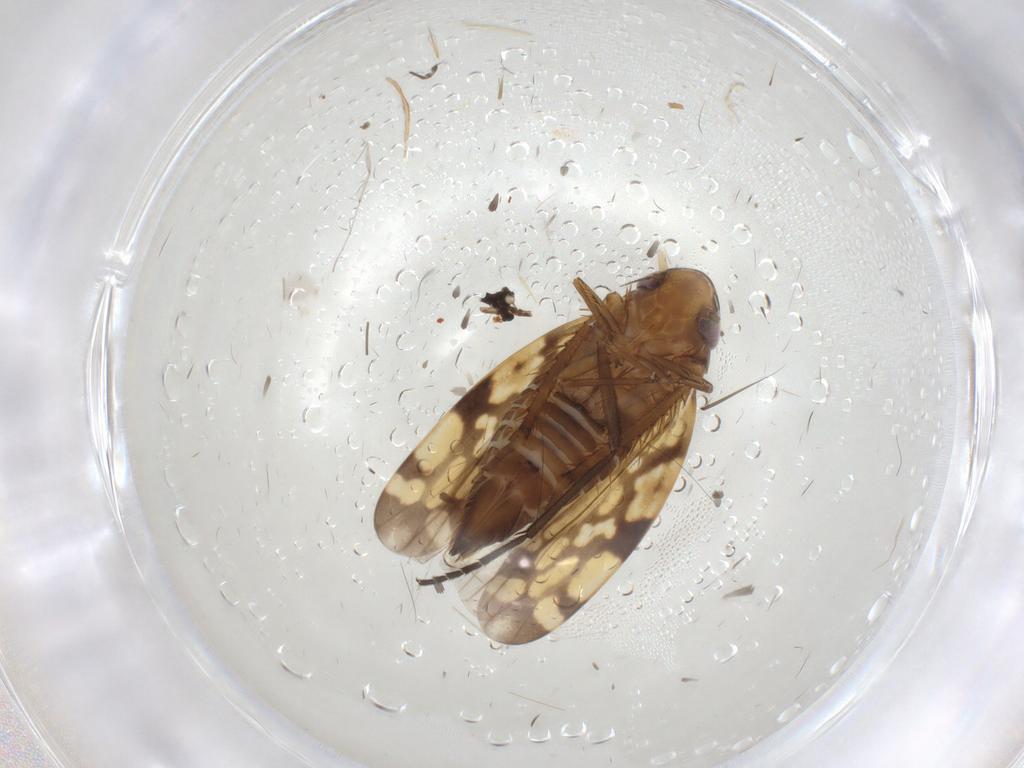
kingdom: Animalia
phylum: Arthropoda
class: Insecta
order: Hemiptera
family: Cicadellidae
